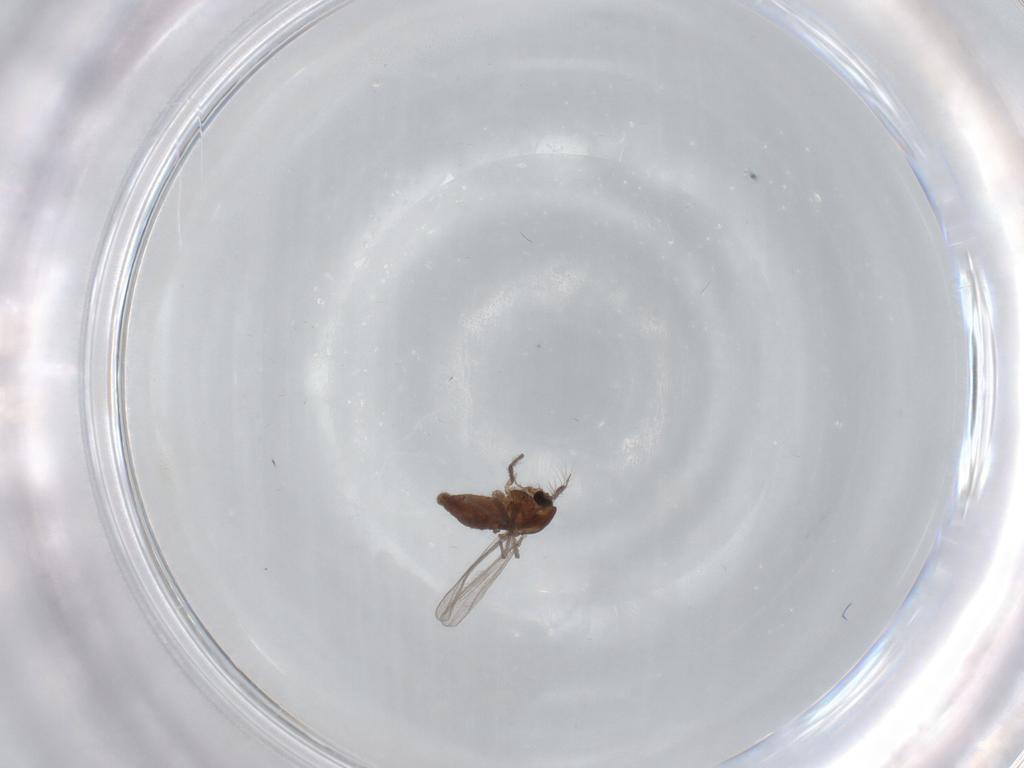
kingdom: Animalia
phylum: Arthropoda
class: Insecta
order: Diptera
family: Chironomidae
